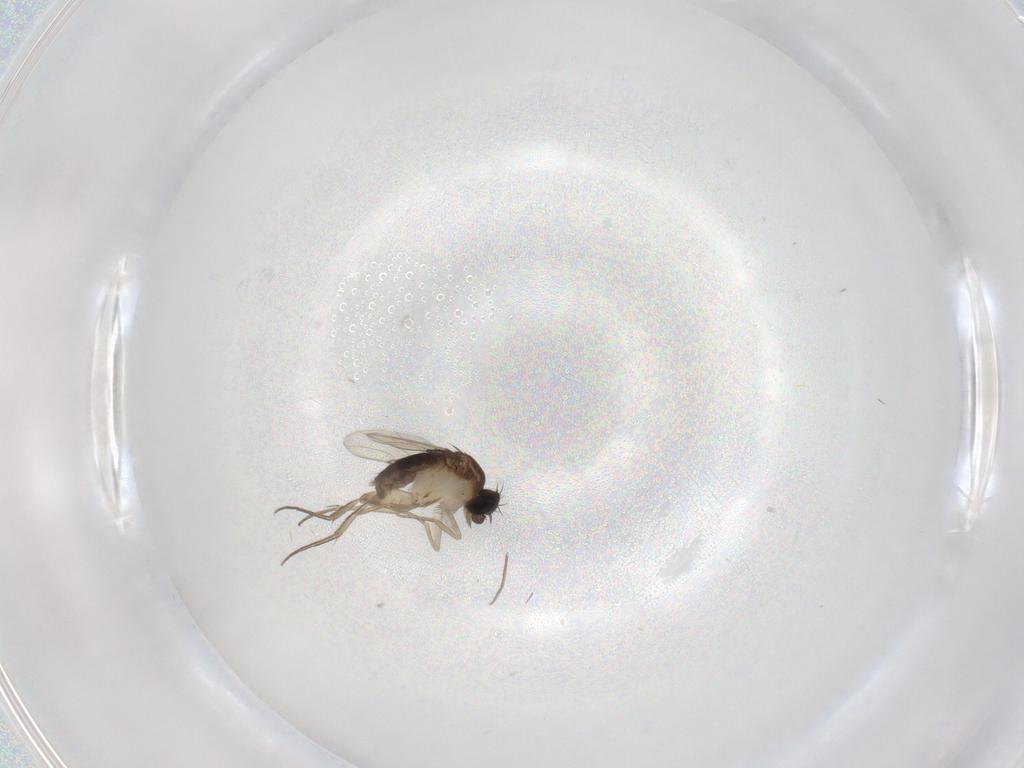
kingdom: Animalia
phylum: Arthropoda
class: Insecta
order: Diptera
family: Phoridae
